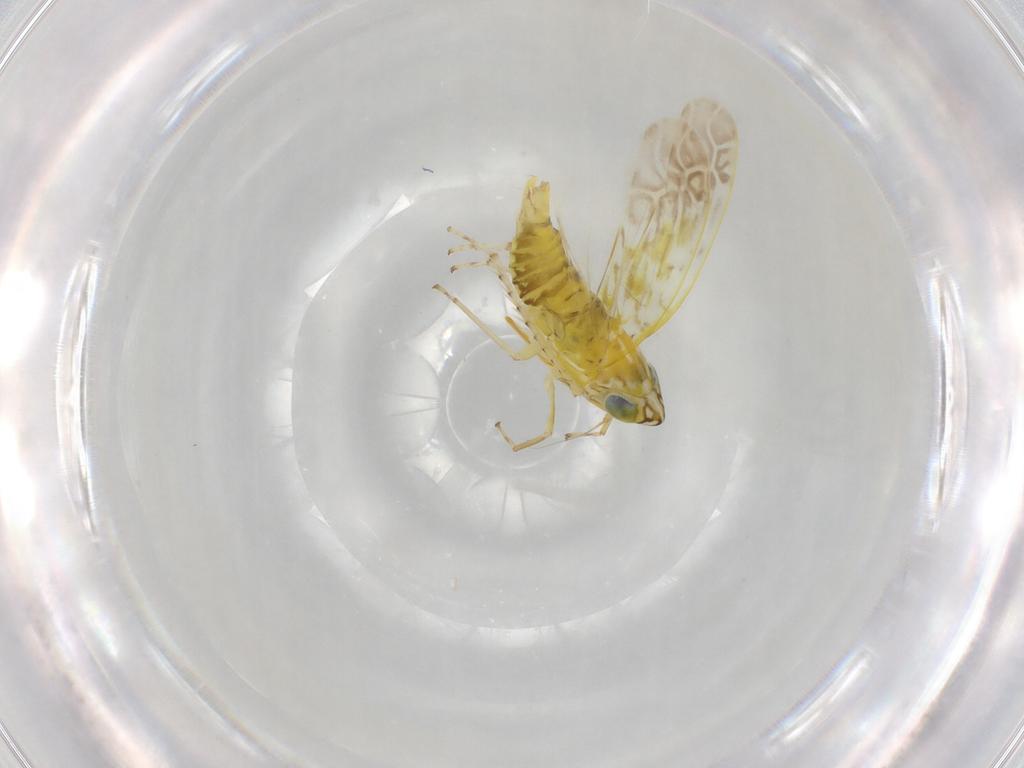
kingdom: Animalia
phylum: Arthropoda
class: Insecta
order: Hemiptera
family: Cicadellidae
